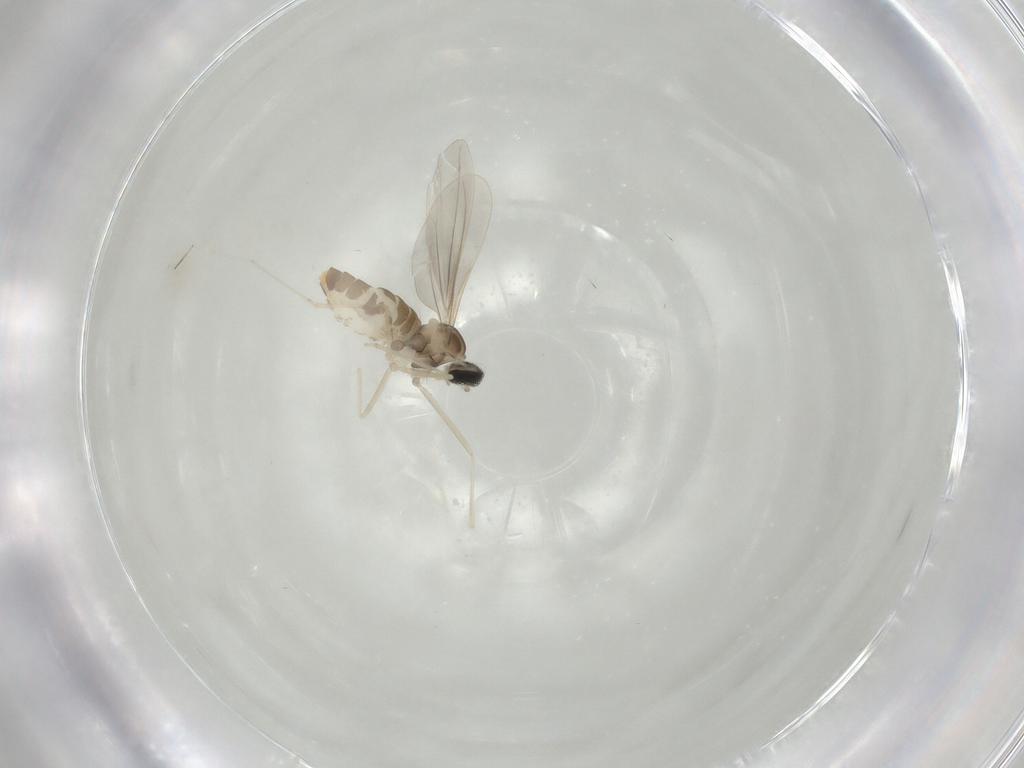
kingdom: Animalia
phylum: Arthropoda
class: Insecta
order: Diptera
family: Cecidomyiidae
